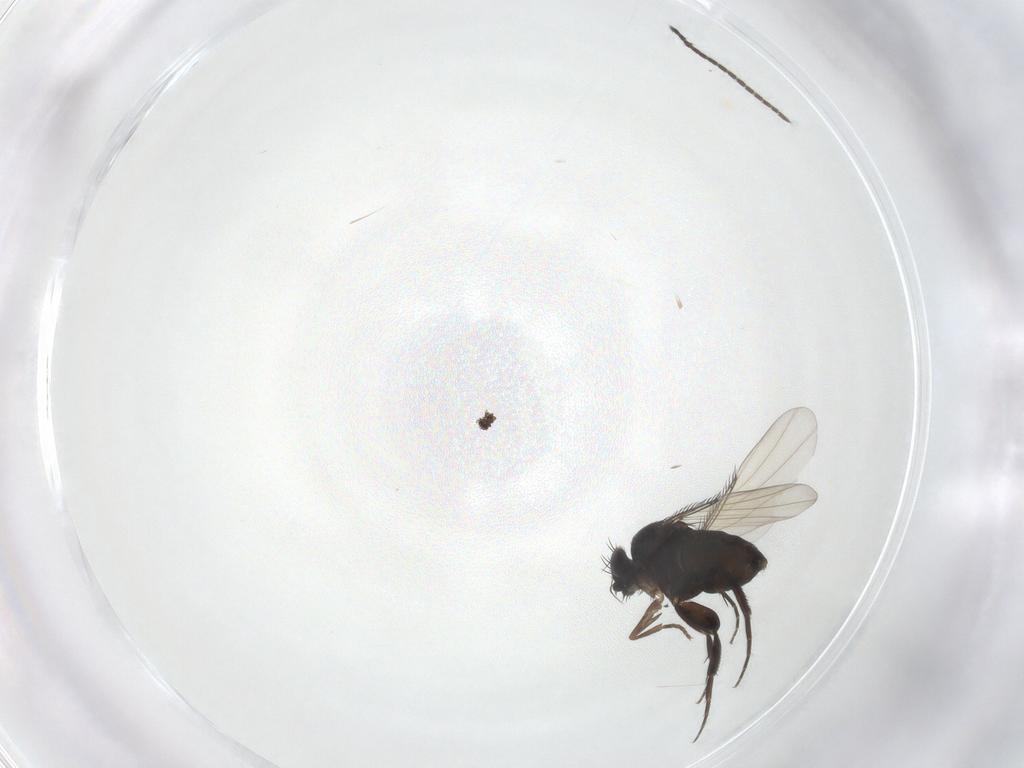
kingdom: Animalia
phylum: Arthropoda
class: Insecta
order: Diptera
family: Phoridae
